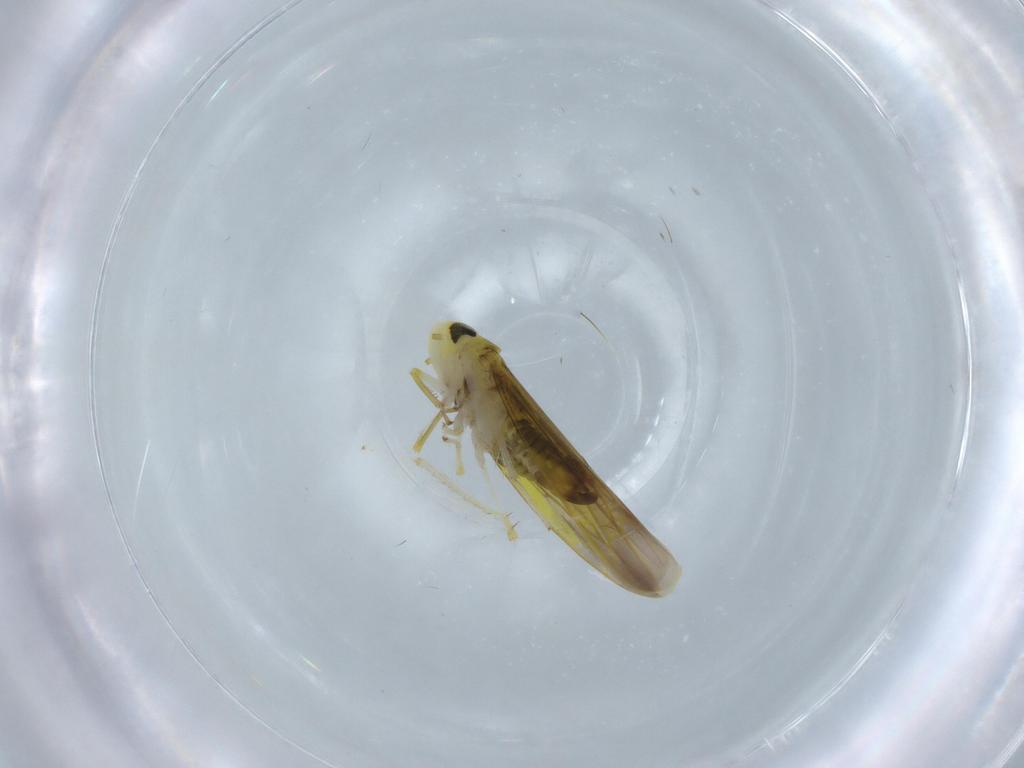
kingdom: Animalia
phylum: Arthropoda
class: Insecta
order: Hemiptera
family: Cicadellidae
